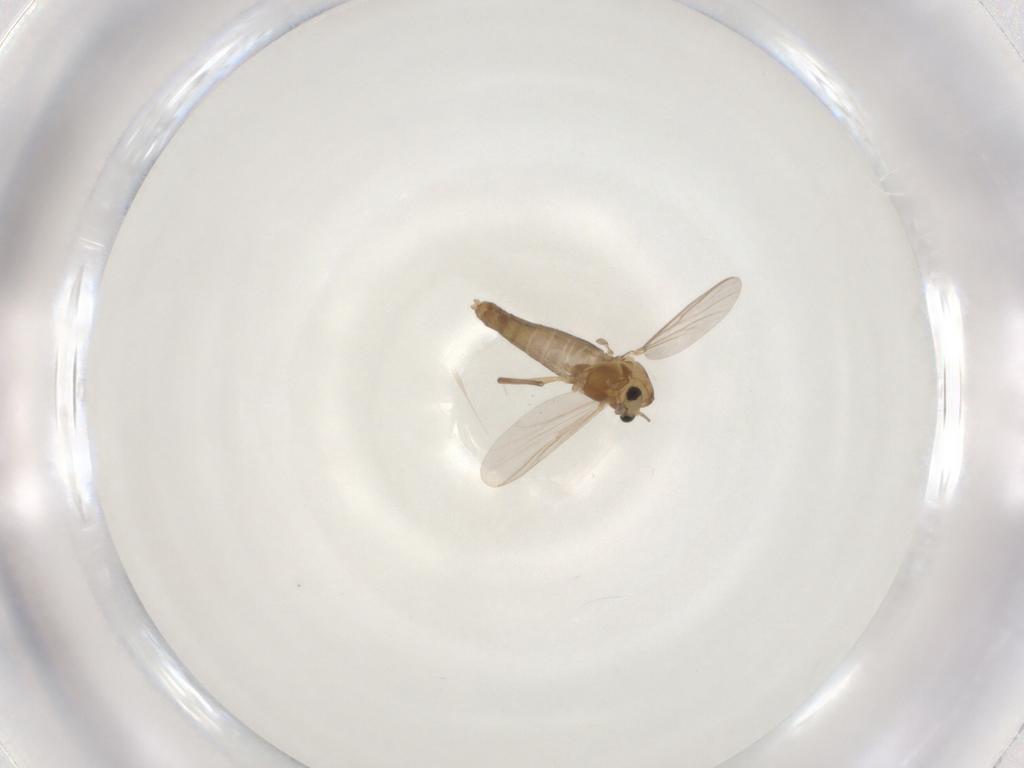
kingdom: Animalia
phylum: Arthropoda
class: Insecta
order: Diptera
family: Chironomidae
